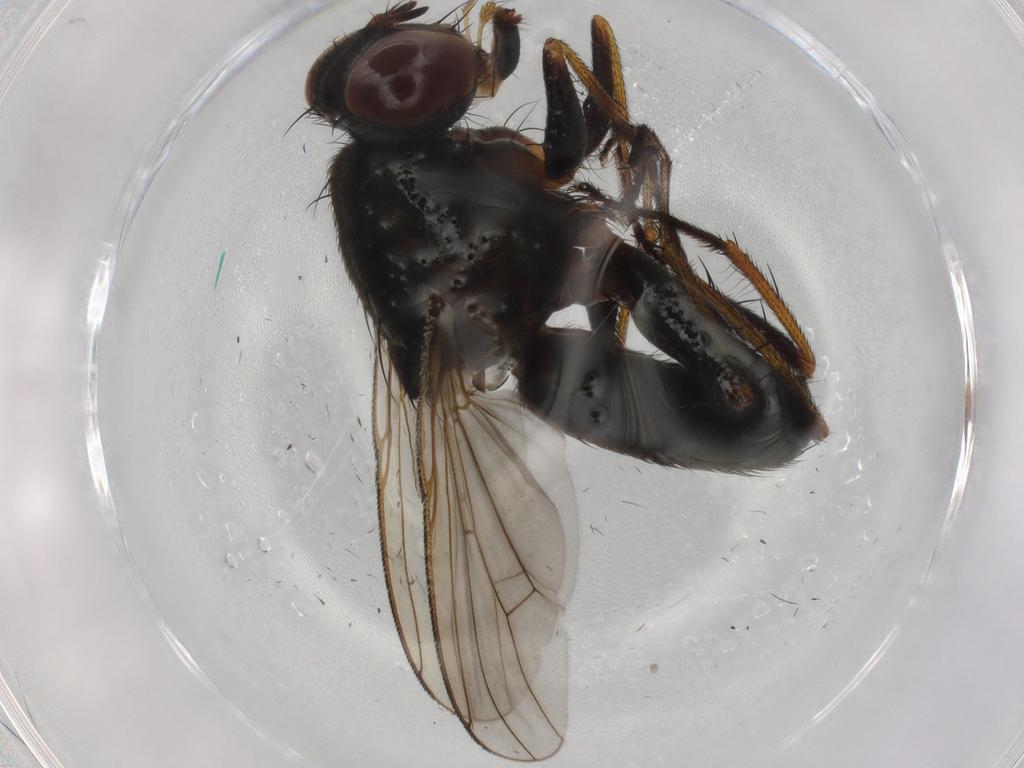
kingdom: Animalia
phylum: Arthropoda
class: Insecta
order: Diptera
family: Muscidae
